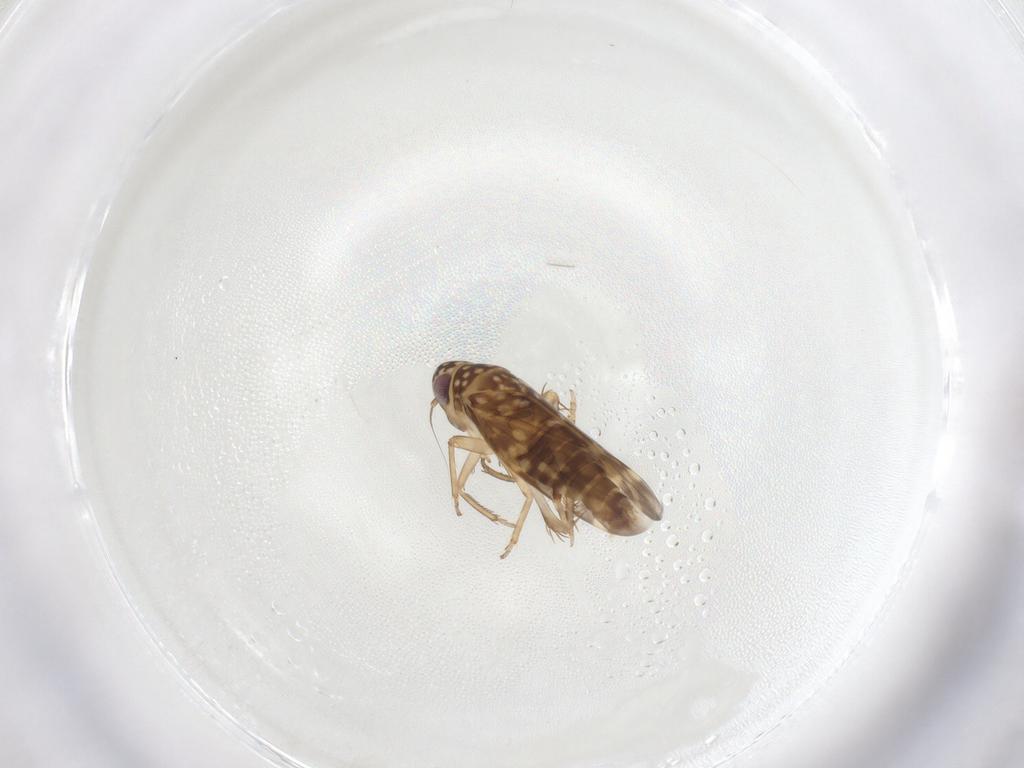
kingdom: Animalia
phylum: Arthropoda
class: Insecta
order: Hemiptera
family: Cicadellidae
